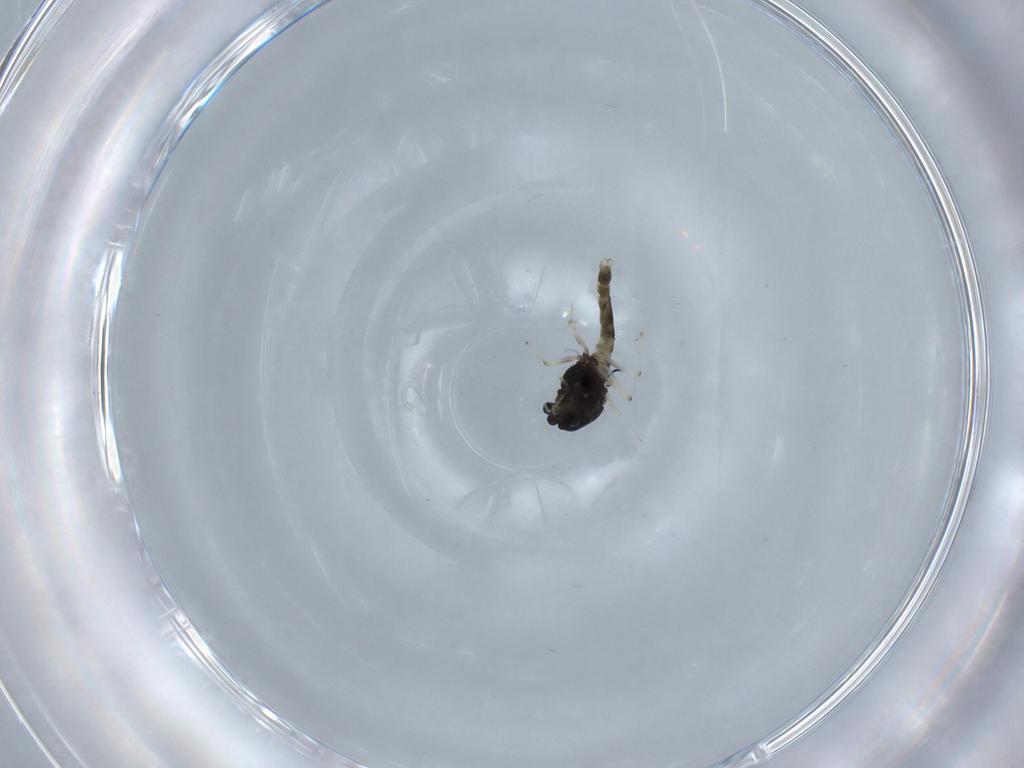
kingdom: Animalia
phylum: Arthropoda
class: Insecta
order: Diptera
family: Chironomidae
